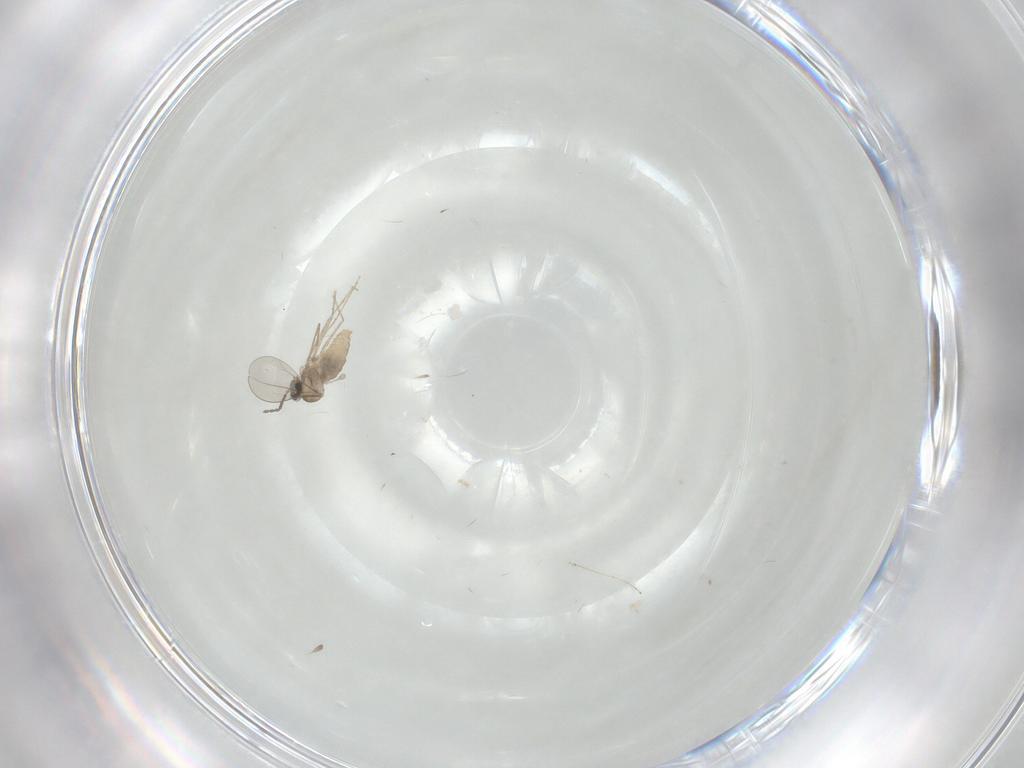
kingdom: Animalia
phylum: Arthropoda
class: Insecta
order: Diptera
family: Cecidomyiidae
